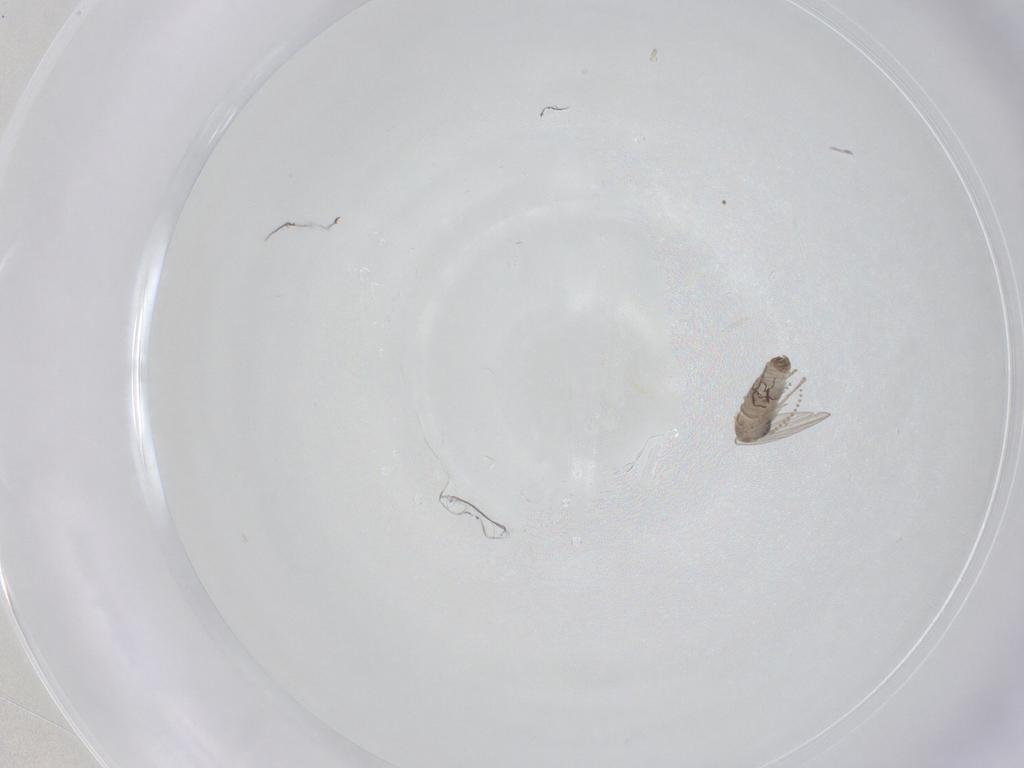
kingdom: Animalia
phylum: Arthropoda
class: Insecta
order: Diptera
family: Psychodidae
